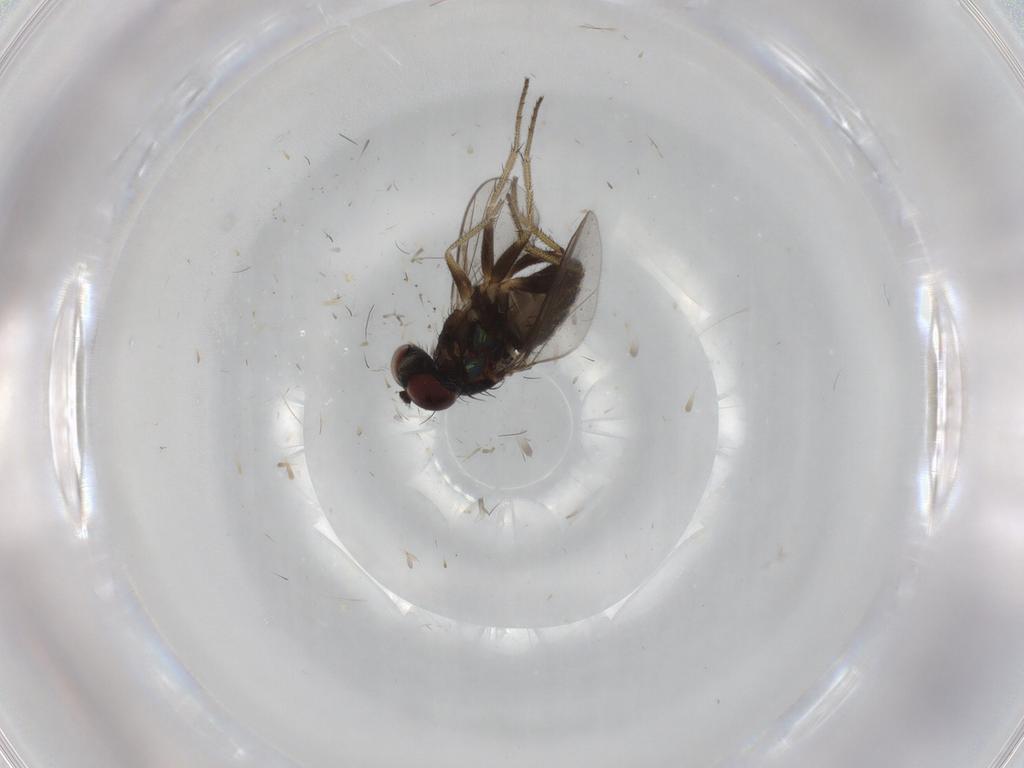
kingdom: Animalia
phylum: Arthropoda
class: Insecta
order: Diptera
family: Dolichopodidae
